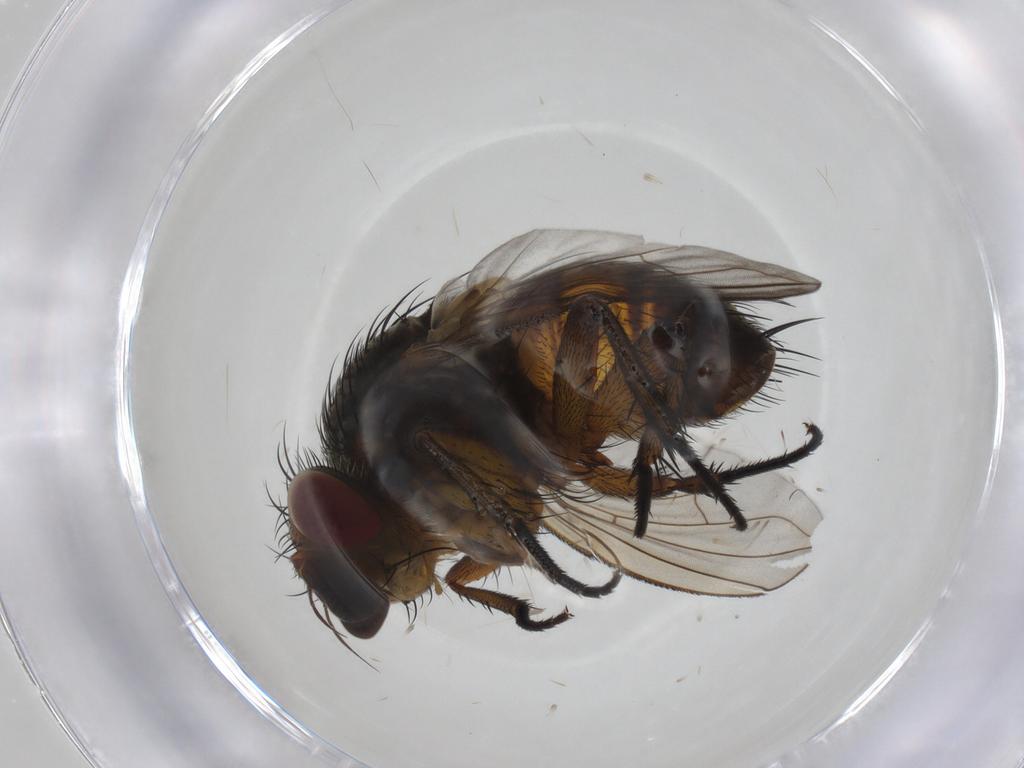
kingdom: Animalia
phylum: Arthropoda
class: Insecta
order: Diptera
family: Tachinidae
